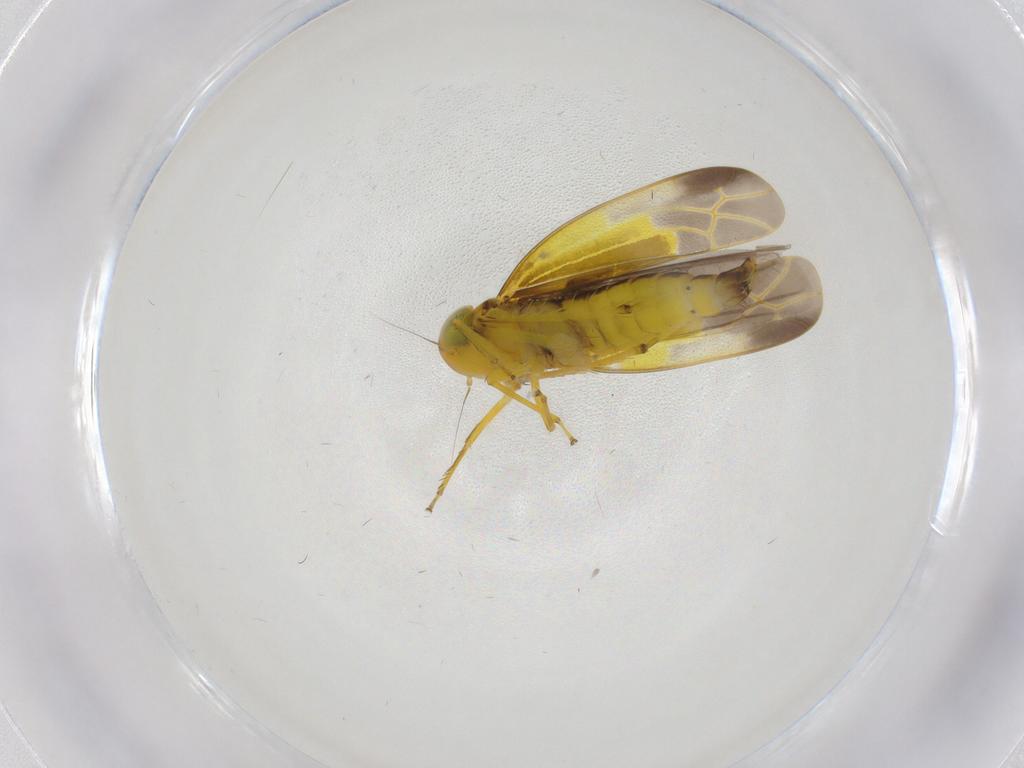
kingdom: Animalia
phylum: Arthropoda
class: Insecta
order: Hemiptera
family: Cicadellidae
